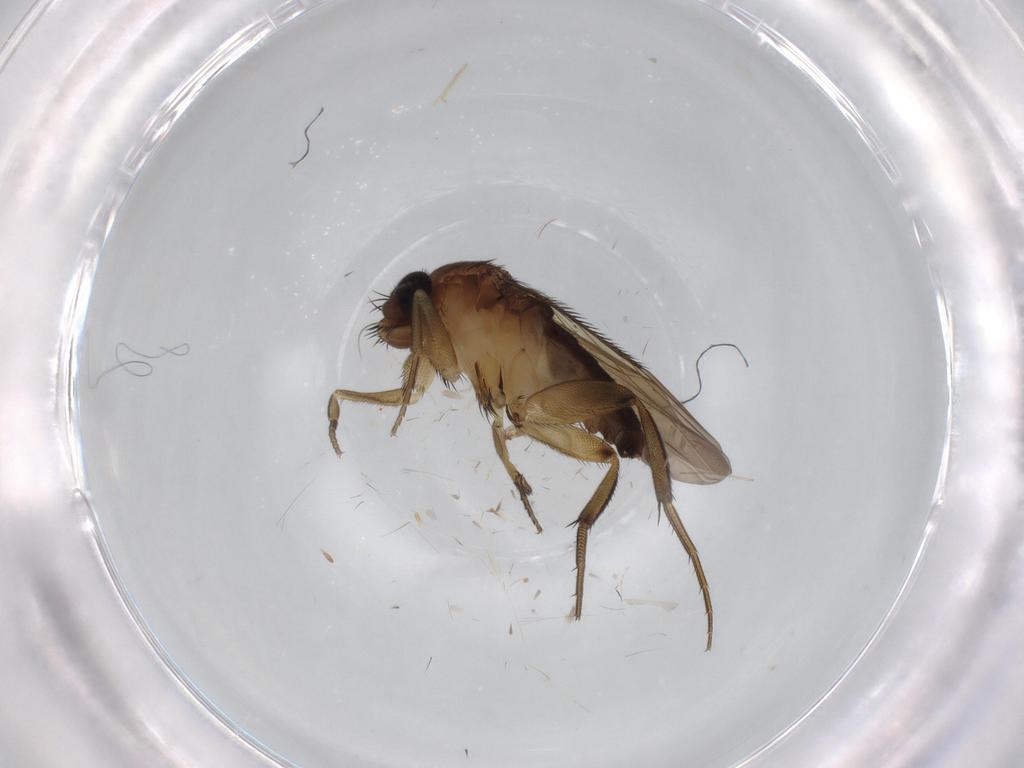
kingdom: Animalia
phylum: Arthropoda
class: Insecta
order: Diptera
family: Phoridae
